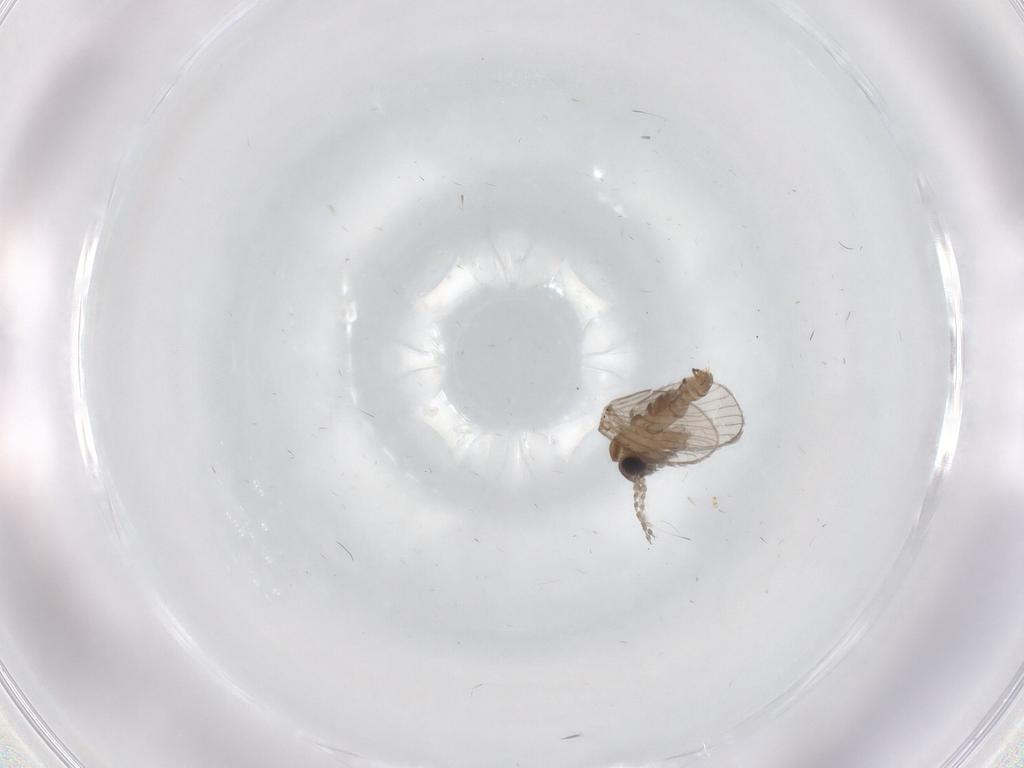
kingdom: Animalia
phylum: Arthropoda
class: Insecta
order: Diptera
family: Psychodidae
